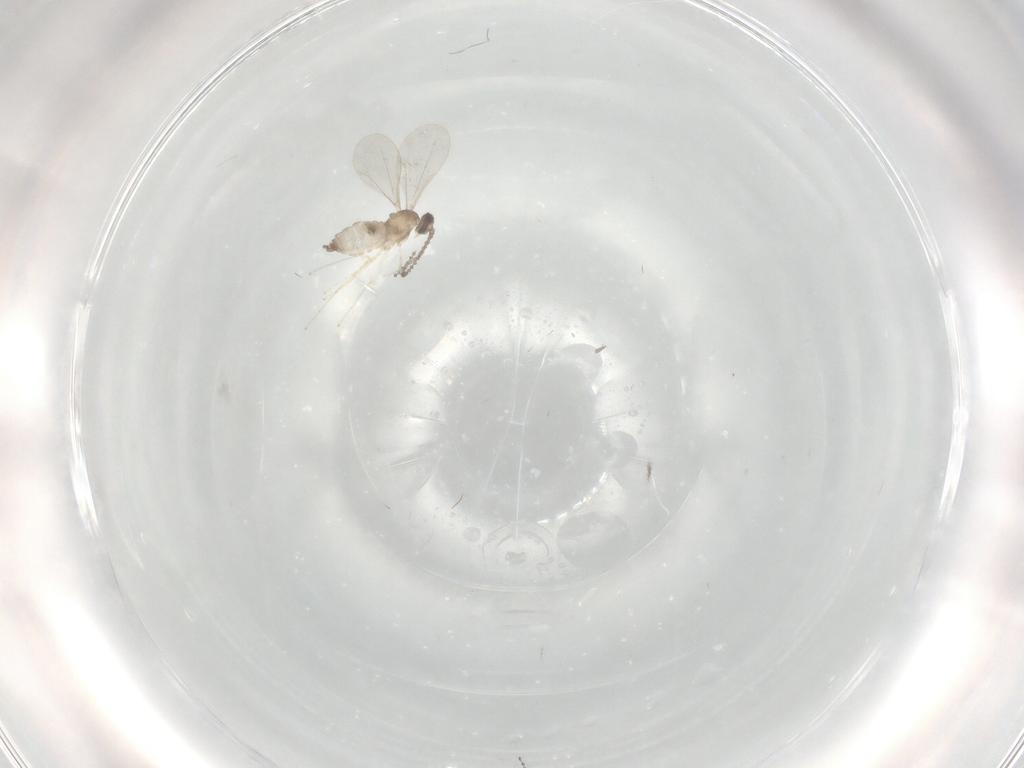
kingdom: Animalia
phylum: Arthropoda
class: Insecta
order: Diptera
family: Cecidomyiidae
